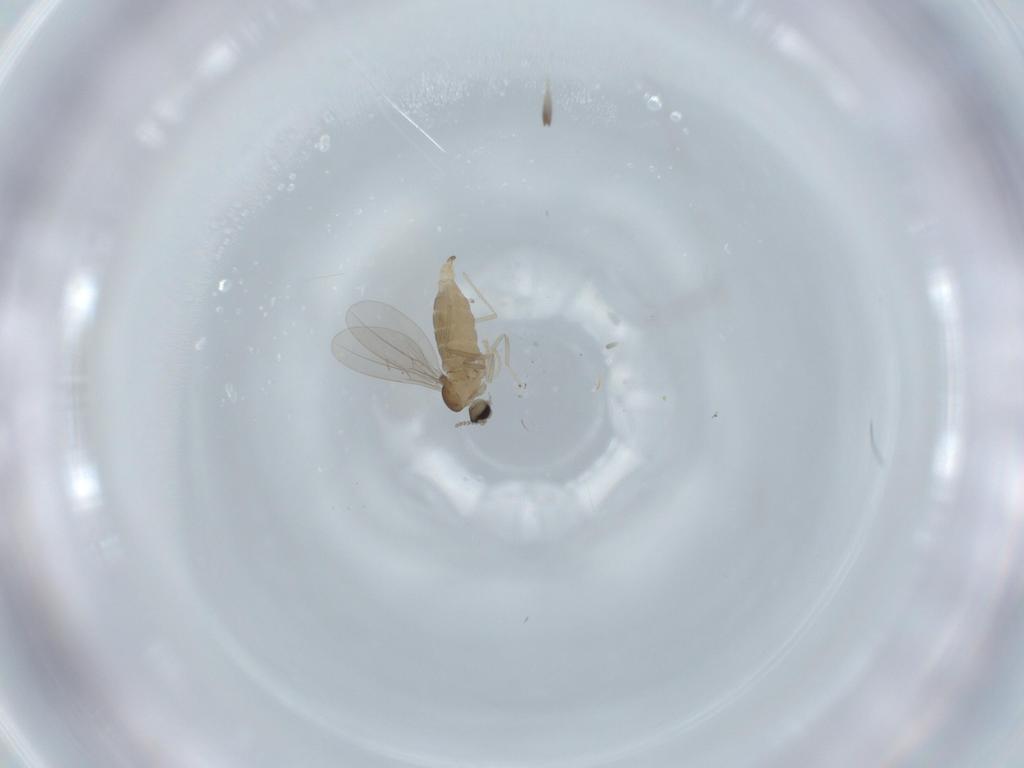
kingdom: Animalia
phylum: Arthropoda
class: Insecta
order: Diptera
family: Cecidomyiidae
